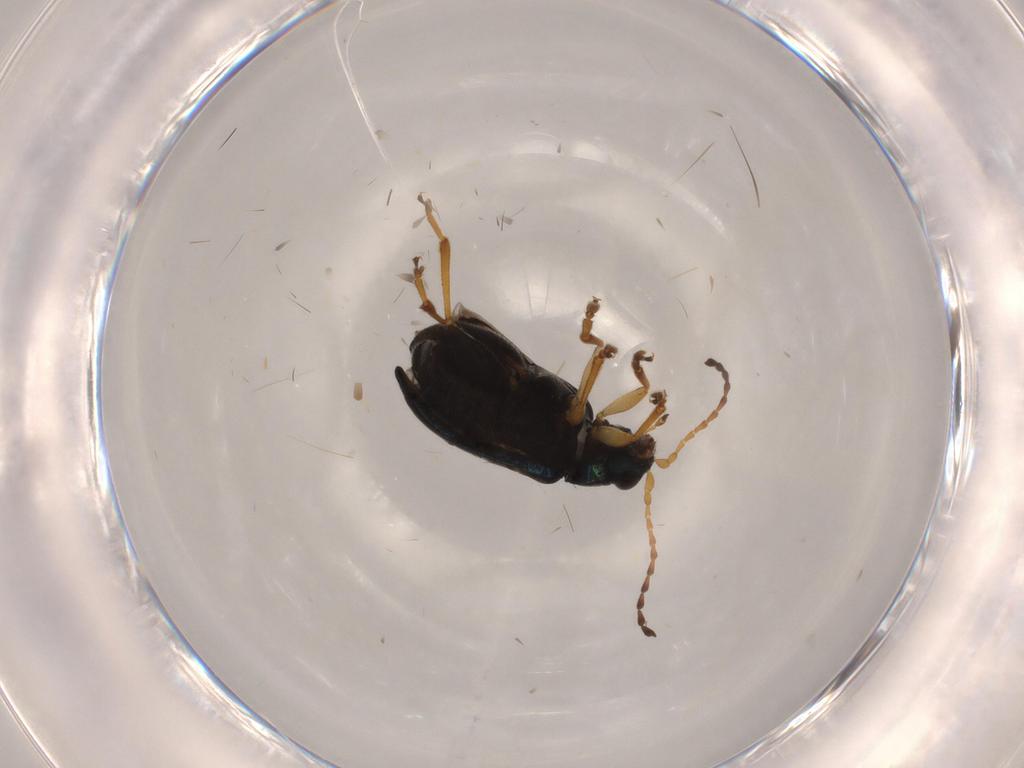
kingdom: Animalia
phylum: Arthropoda
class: Insecta
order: Coleoptera
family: Chrysomelidae
